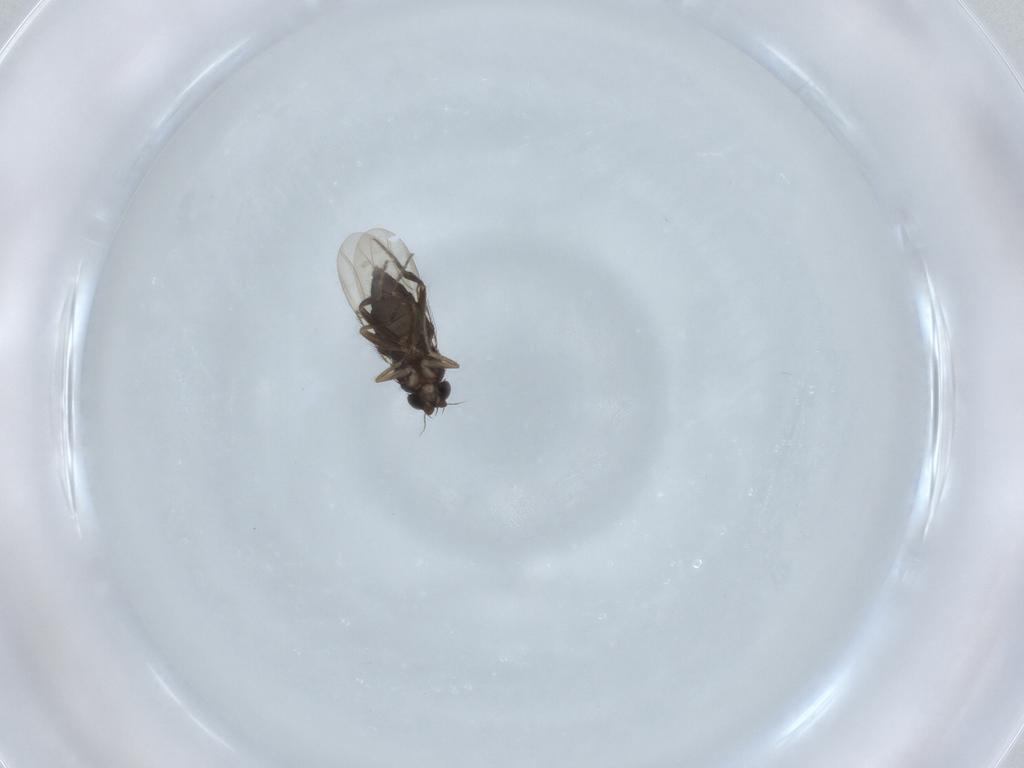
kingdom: Animalia
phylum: Arthropoda
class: Insecta
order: Diptera
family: Phoridae
